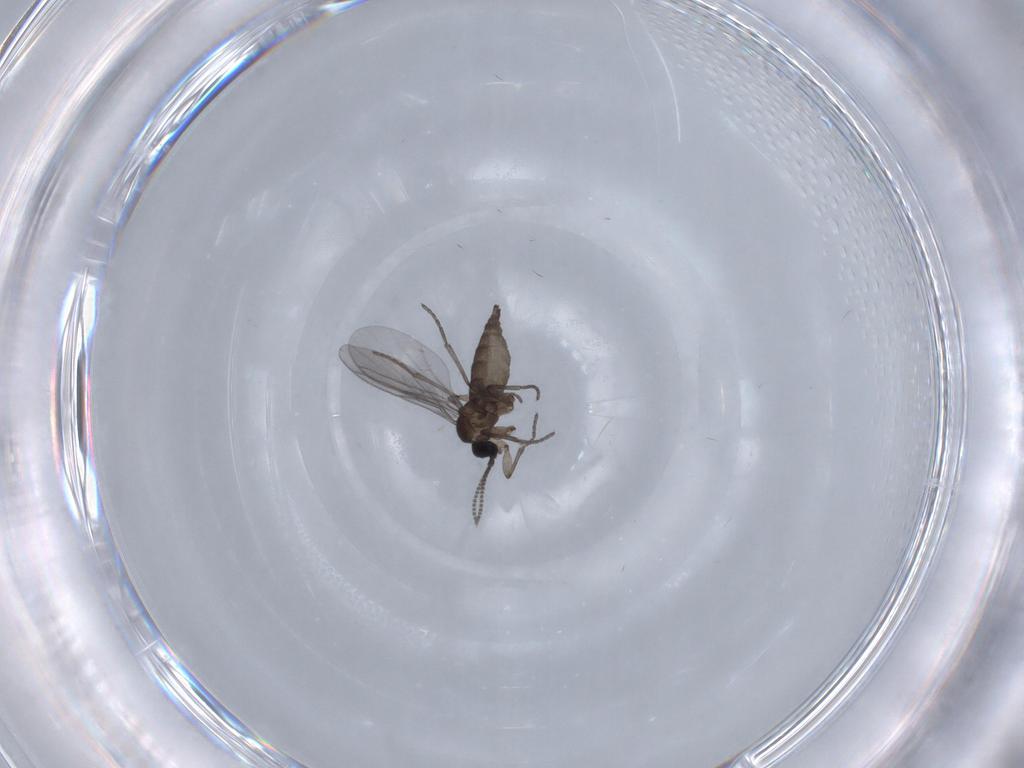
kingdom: Animalia
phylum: Arthropoda
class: Insecta
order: Diptera
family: Chironomidae
